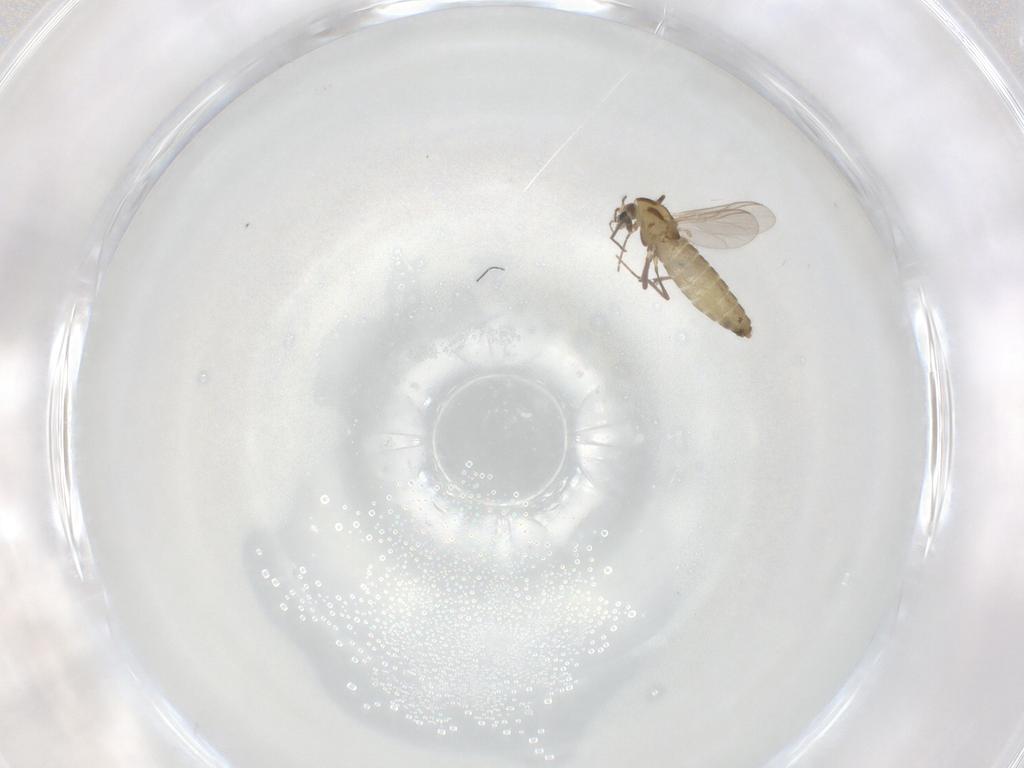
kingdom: Animalia
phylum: Arthropoda
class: Insecta
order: Diptera
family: Chironomidae
